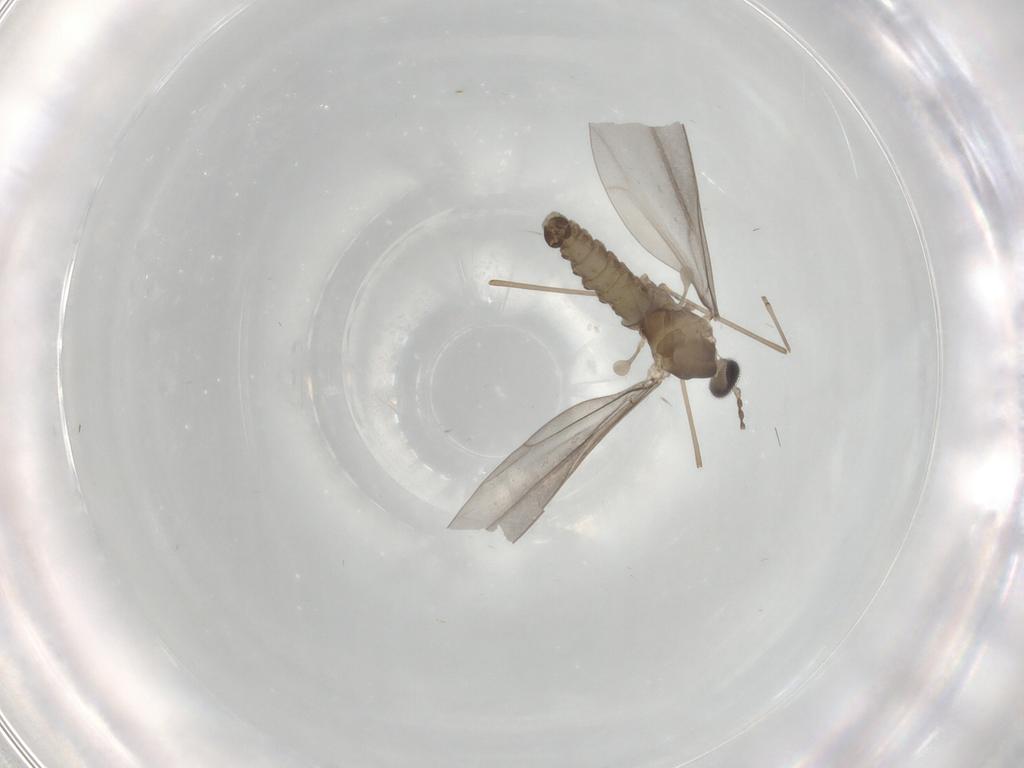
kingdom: Animalia
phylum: Arthropoda
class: Insecta
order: Diptera
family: Cecidomyiidae
